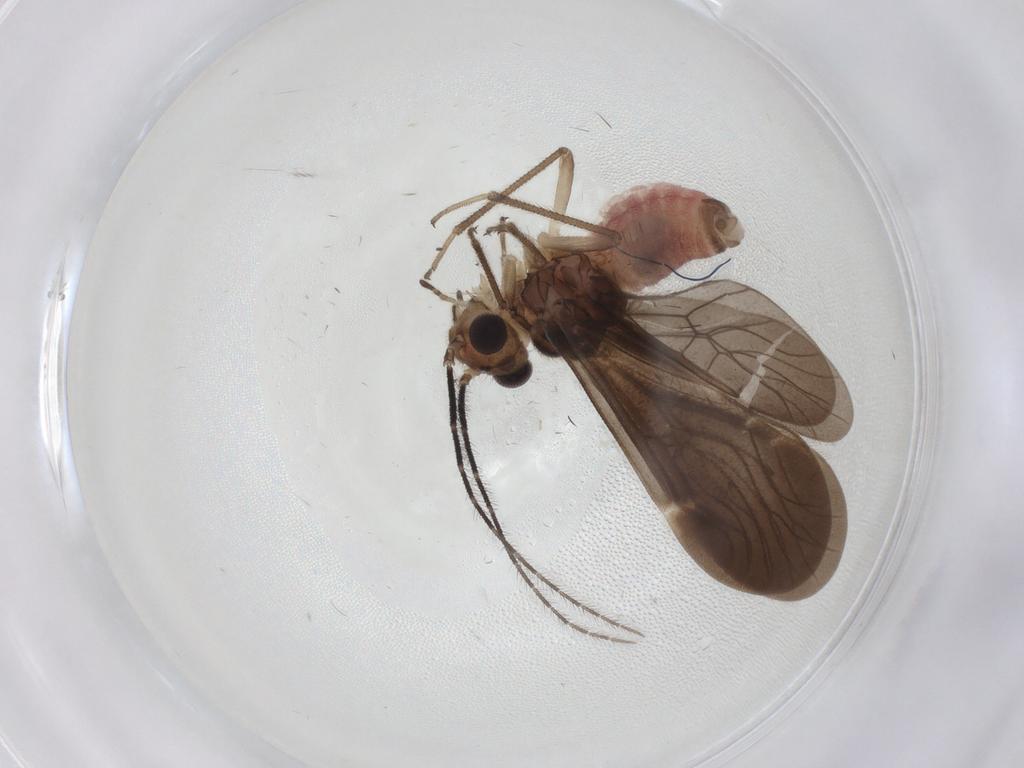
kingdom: Animalia
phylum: Arthropoda
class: Insecta
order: Psocodea
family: Amphipsocidae
